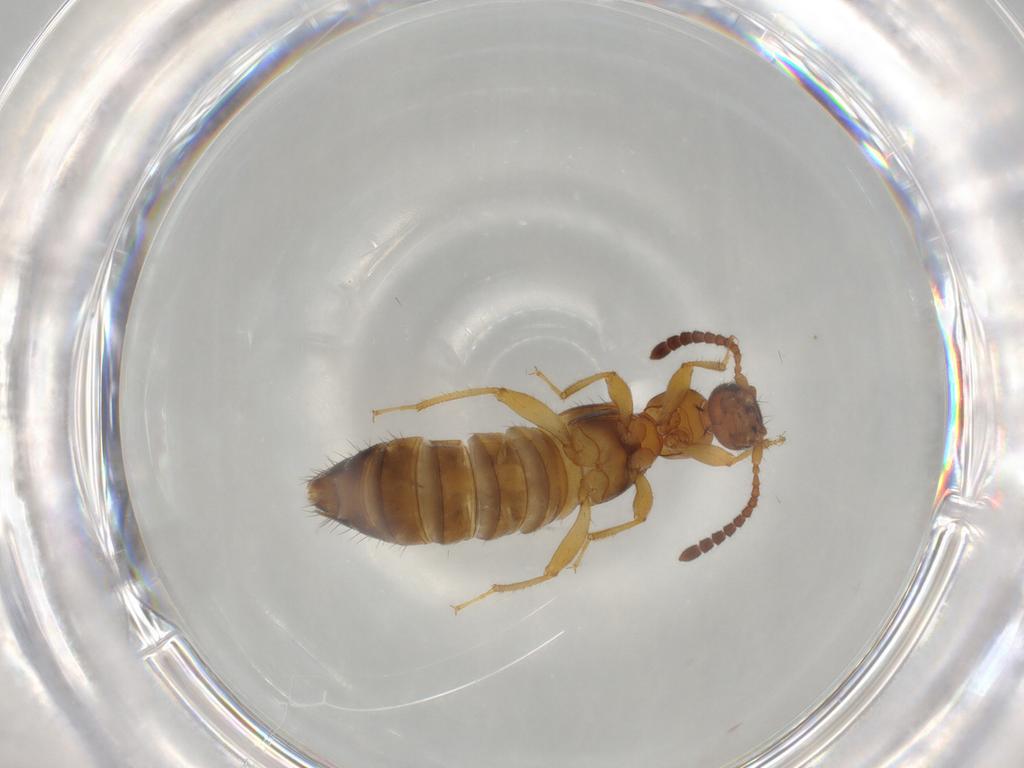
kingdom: Animalia
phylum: Arthropoda
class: Insecta
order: Coleoptera
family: Staphylinidae
